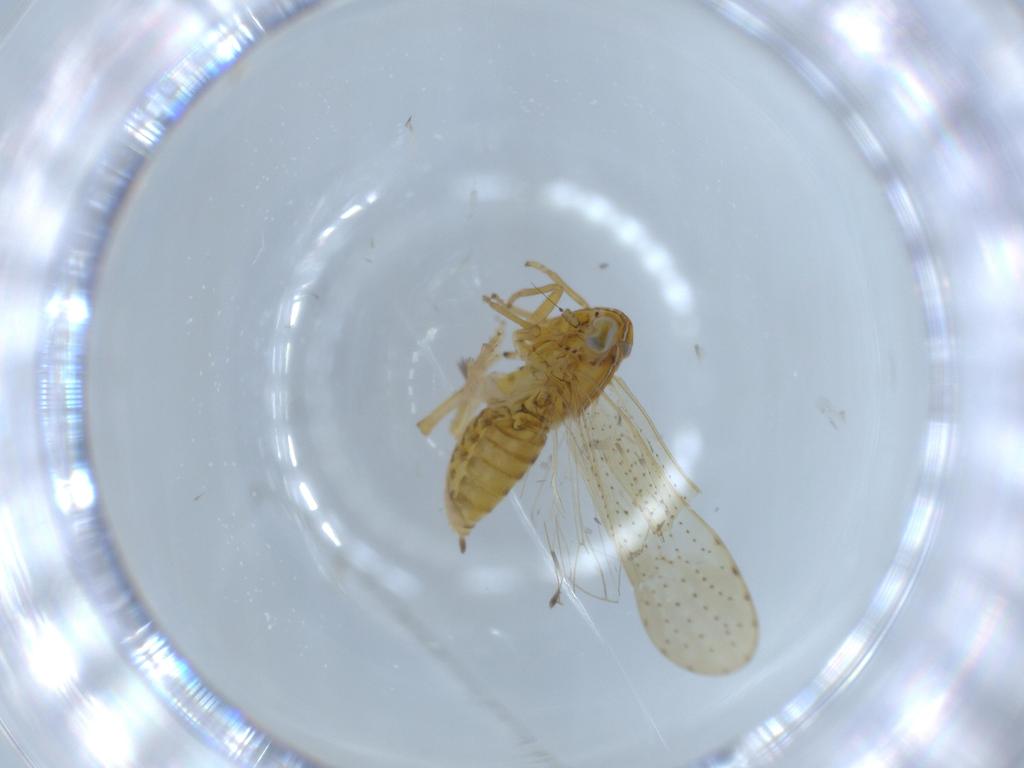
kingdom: Animalia
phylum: Arthropoda
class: Insecta
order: Hemiptera
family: Delphacidae
